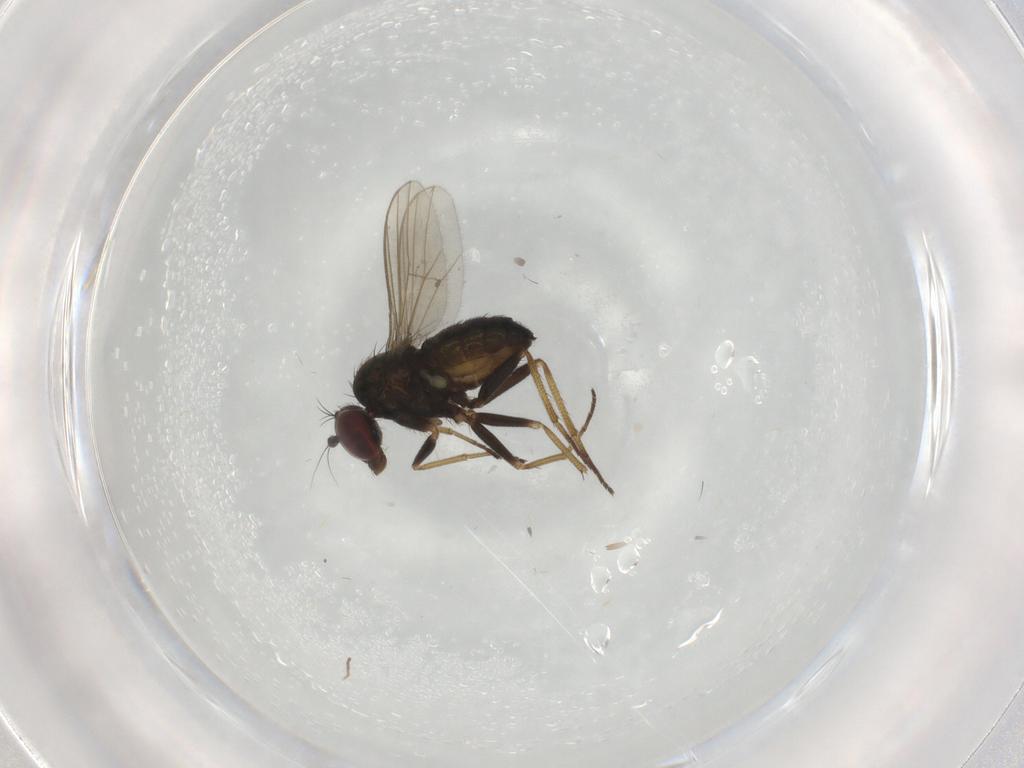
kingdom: Animalia
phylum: Arthropoda
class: Insecta
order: Diptera
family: Dolichopodidae
